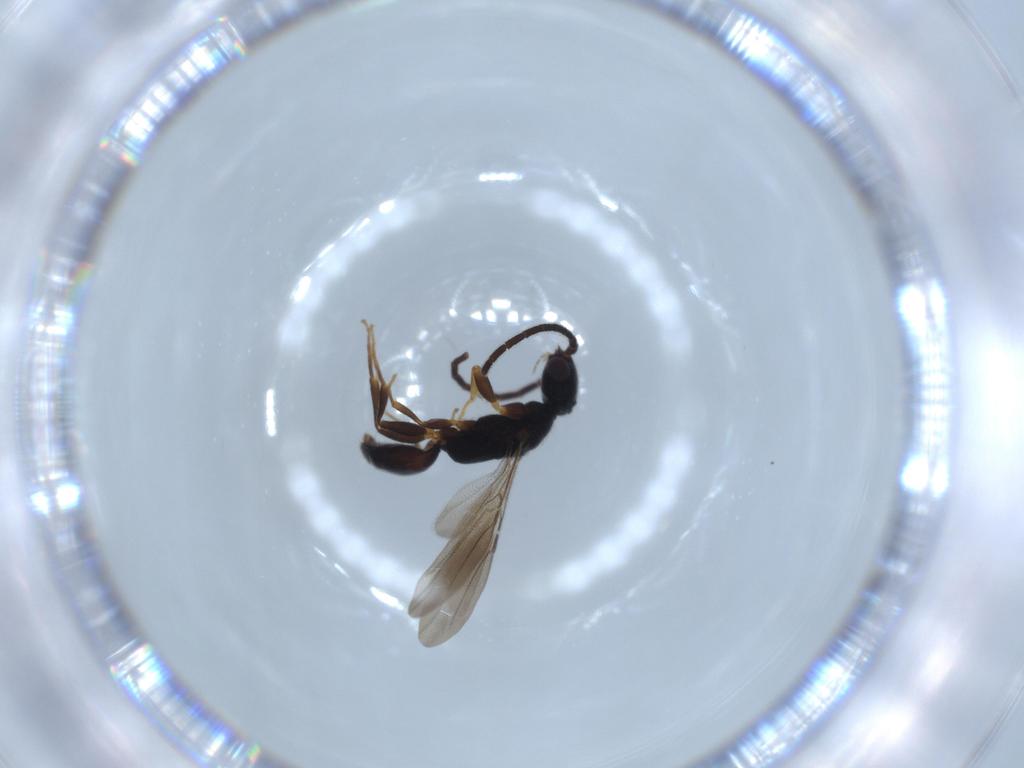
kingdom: Animalia
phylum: Arthropoda
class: Insecta
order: Hymenoptera
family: Bethylidae
